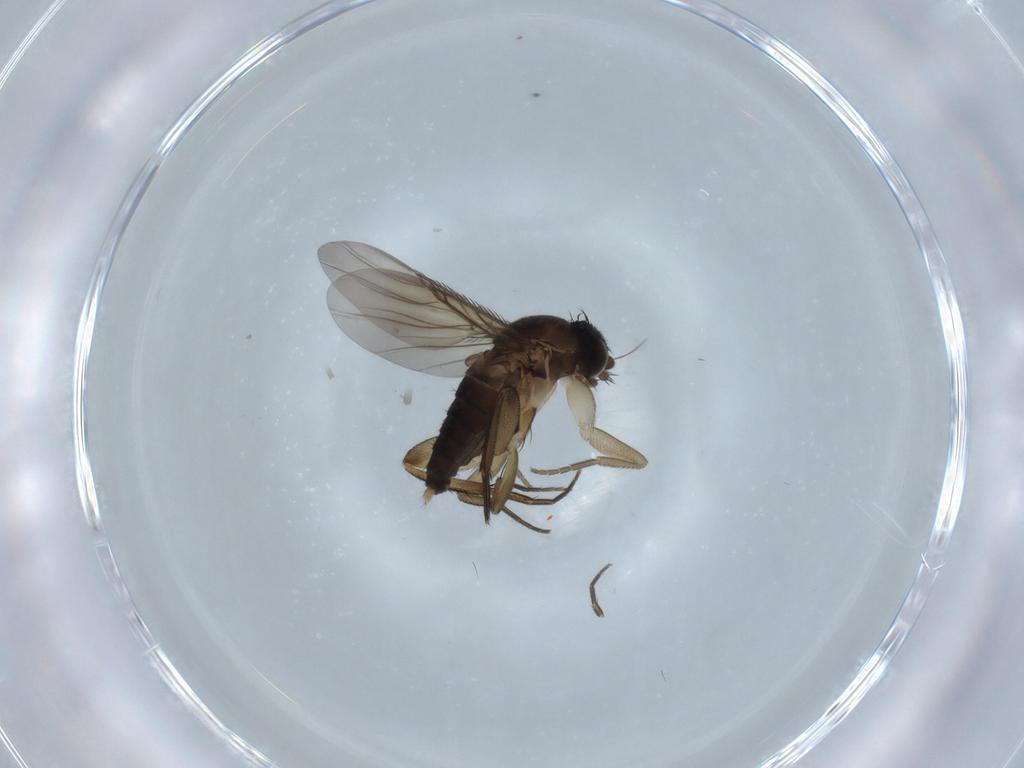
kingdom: Animalia
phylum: Arthropoda
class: Insecta
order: Diptera
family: Phoridae
